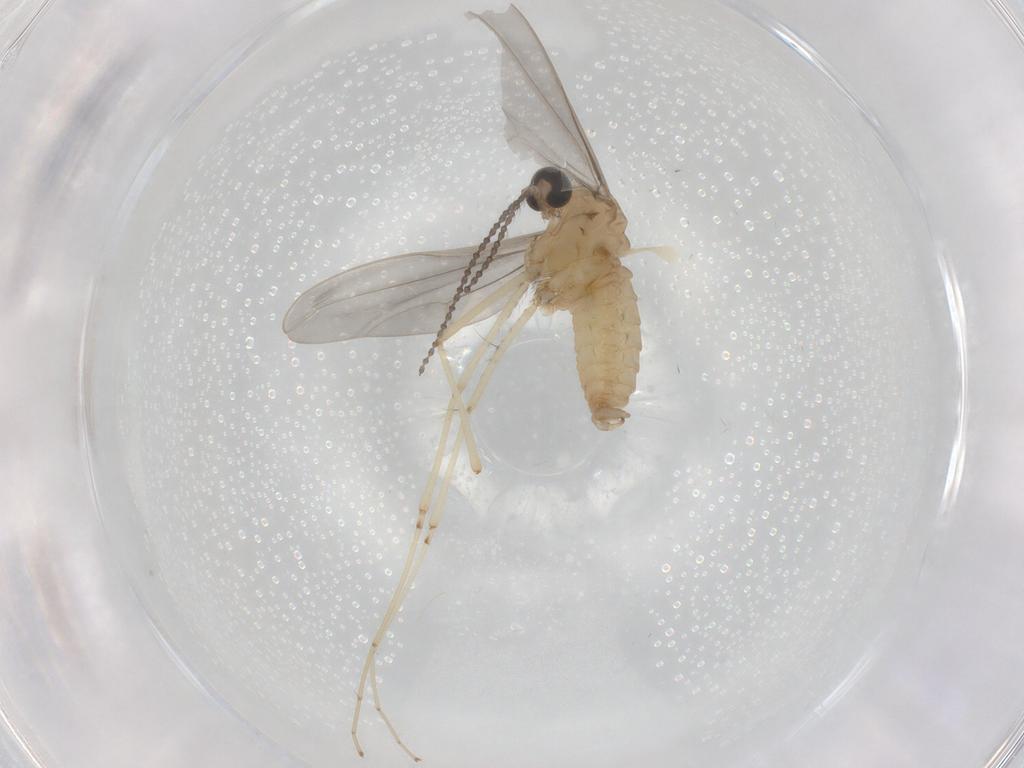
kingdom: Animalia
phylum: Arthropoda
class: Insecta
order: Diptera
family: Cecidomyiidae
